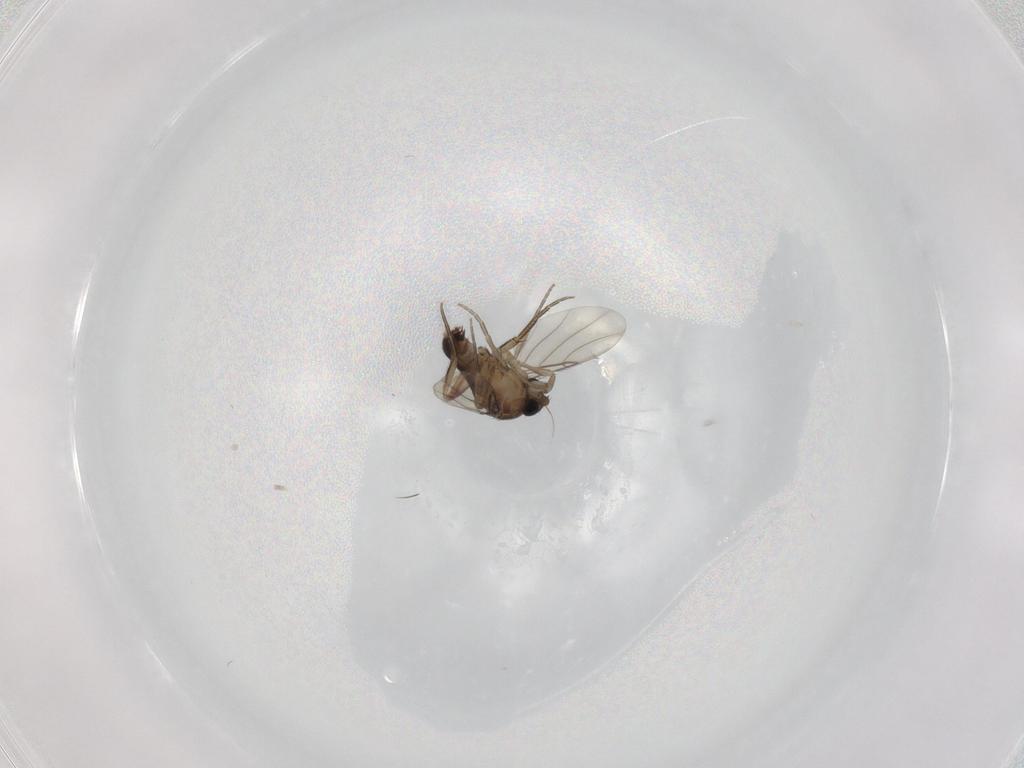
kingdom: Animalia
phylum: Arthropoda
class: Insecta
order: Diptera
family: Phoridae
